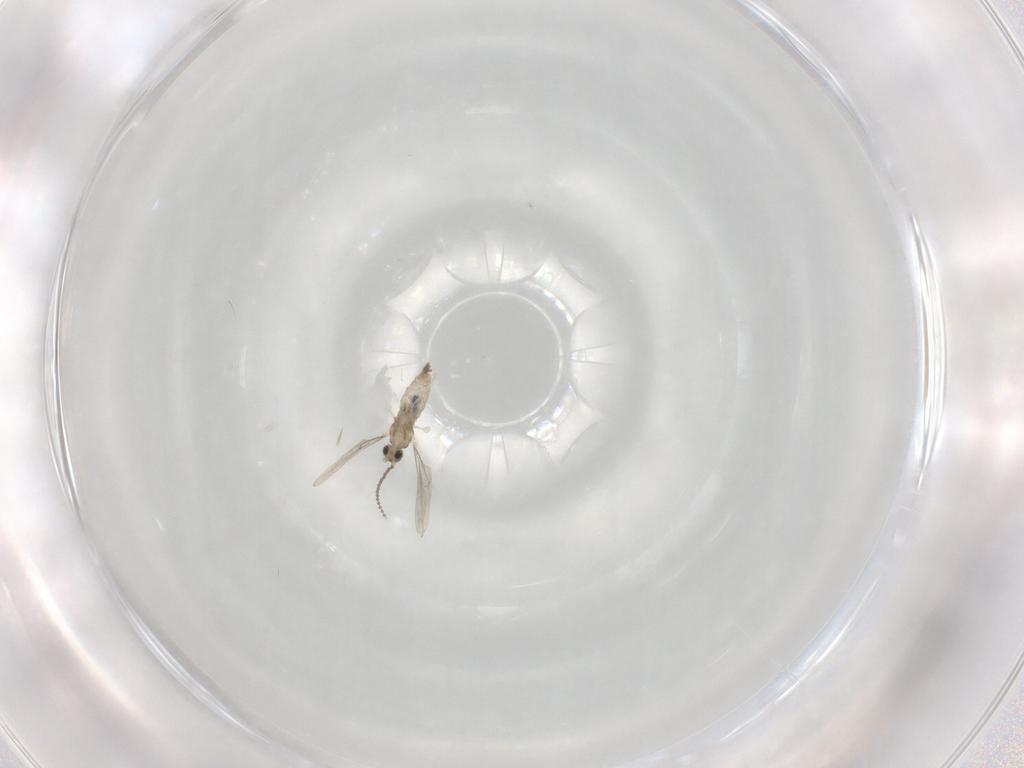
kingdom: Animalia
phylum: Arthropoda
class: Insecta
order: Diptera
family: Cecidomyiidae
